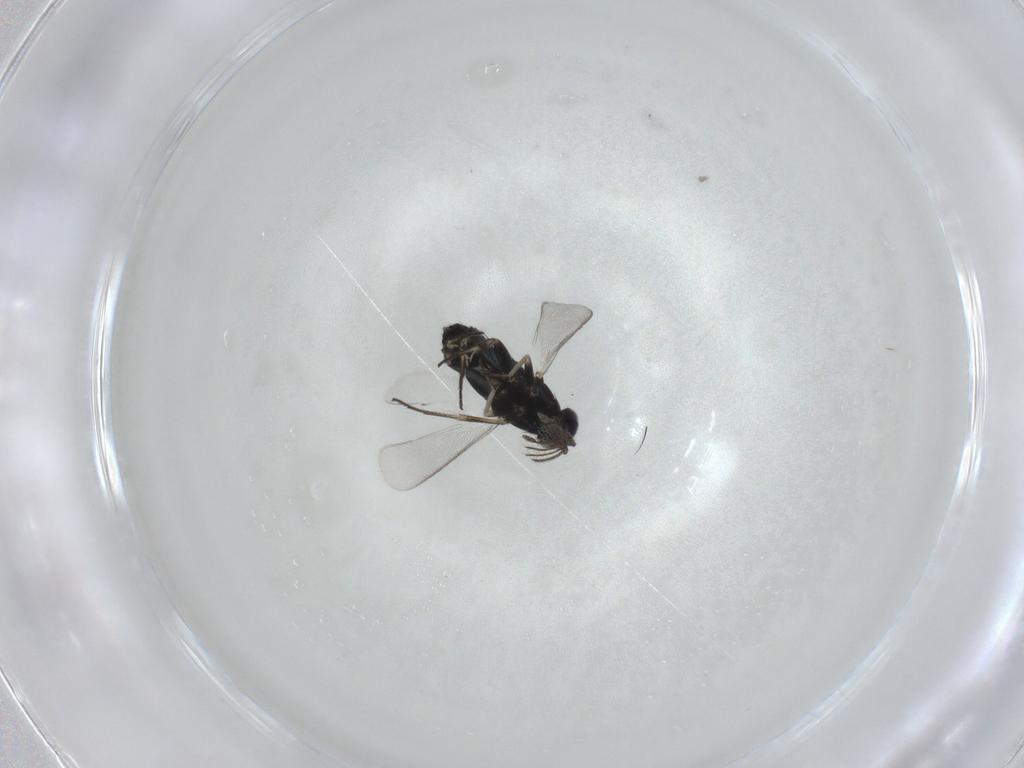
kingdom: Animalia
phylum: Arthropoda
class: Insecta
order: Hymenoptera
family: Eulophidae
